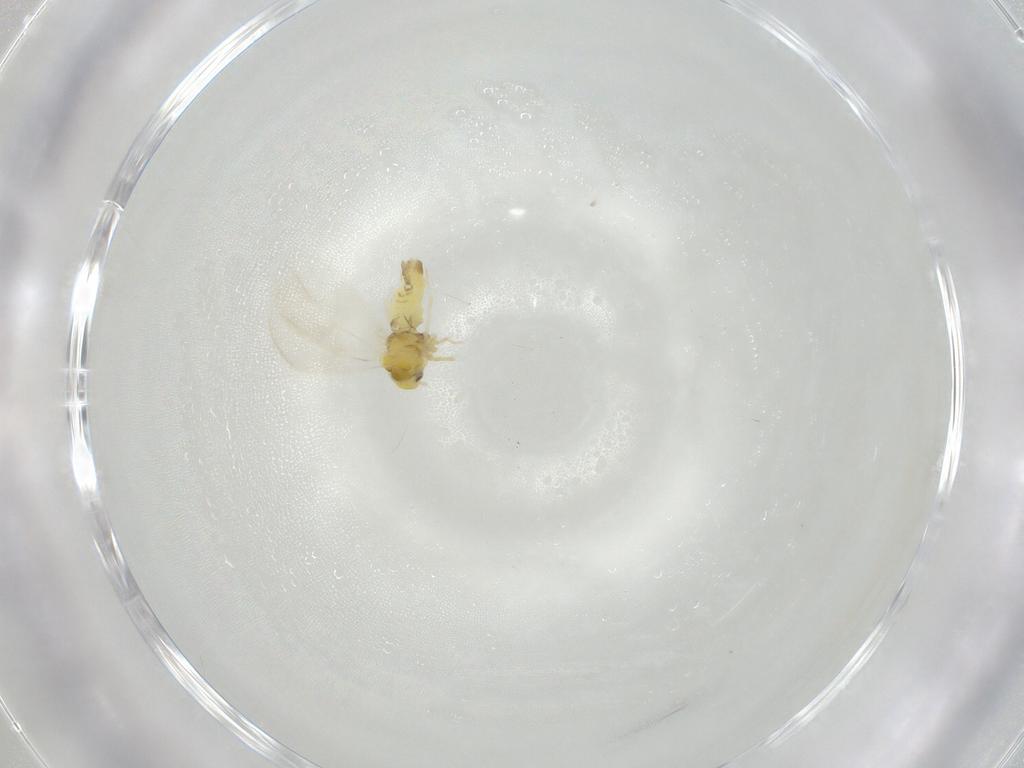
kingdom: Animalia
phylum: Arthropoda
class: Insecta
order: Hemiptera
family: Aleyrodidae
